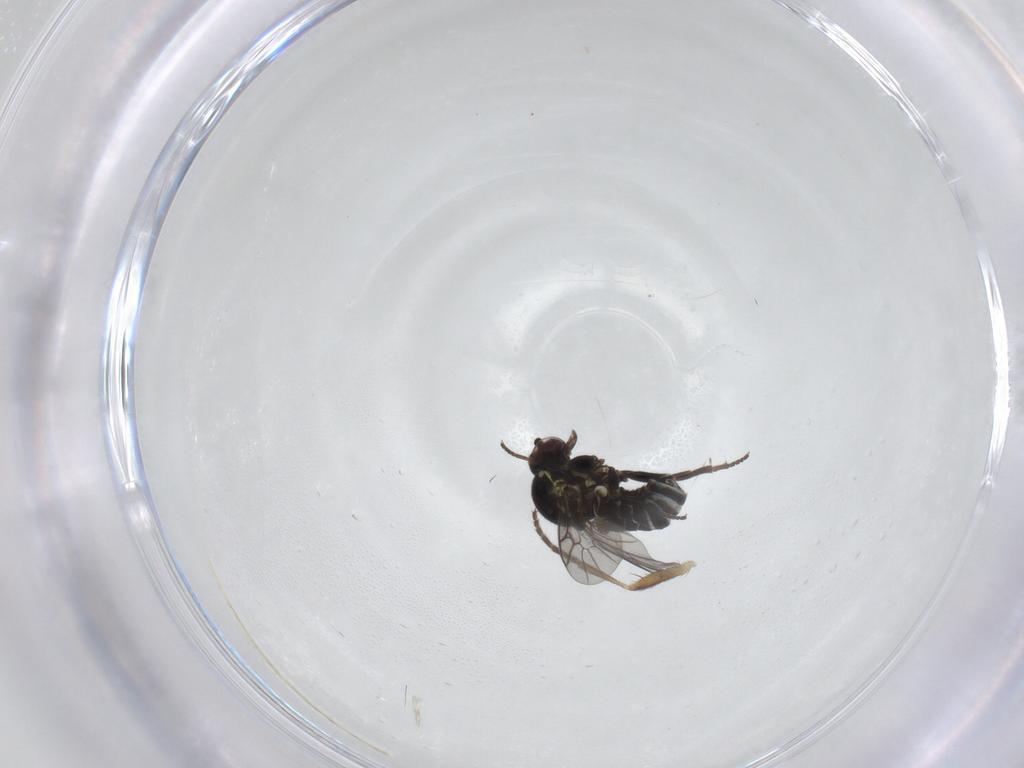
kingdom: Animalia
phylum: Arthropoda
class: Insecta
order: Diptera
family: Heleomyzidae
